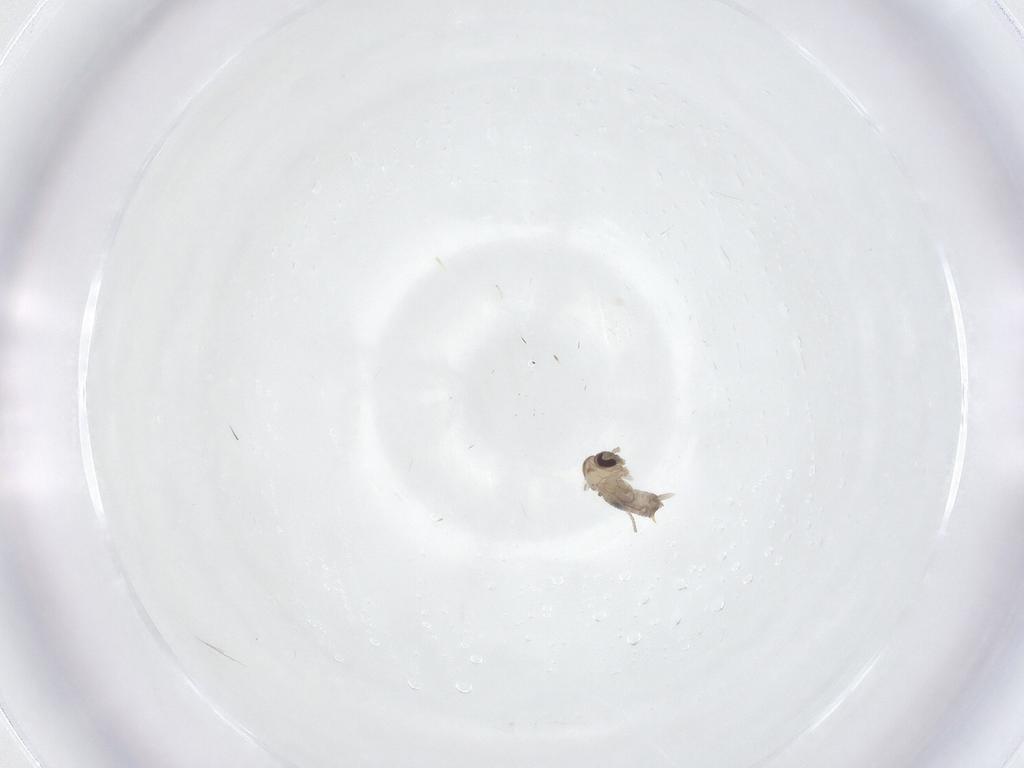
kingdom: Animalia
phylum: Arthropoda
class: Insecta
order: Diptera
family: Psychodidae
